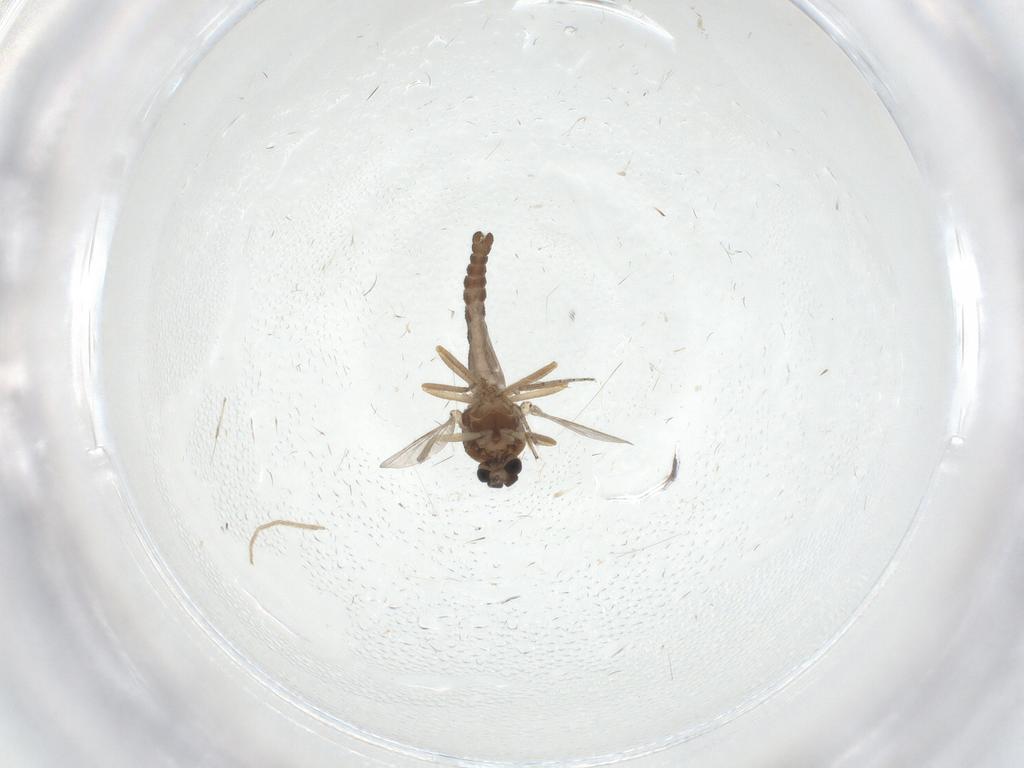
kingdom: Animalia
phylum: Arthropoda
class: Insecta
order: Diptera
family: Ceratopogonidae
